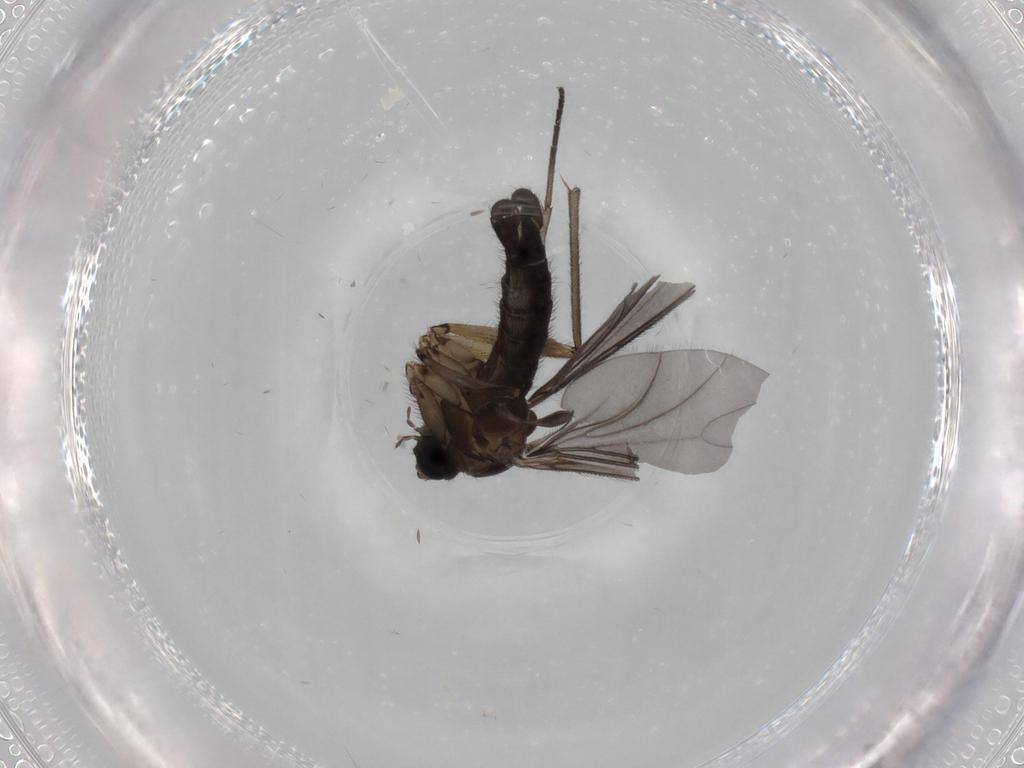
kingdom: Animalia
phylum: Arthropoda
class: Insecta
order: Diptera
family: Sciaridae
